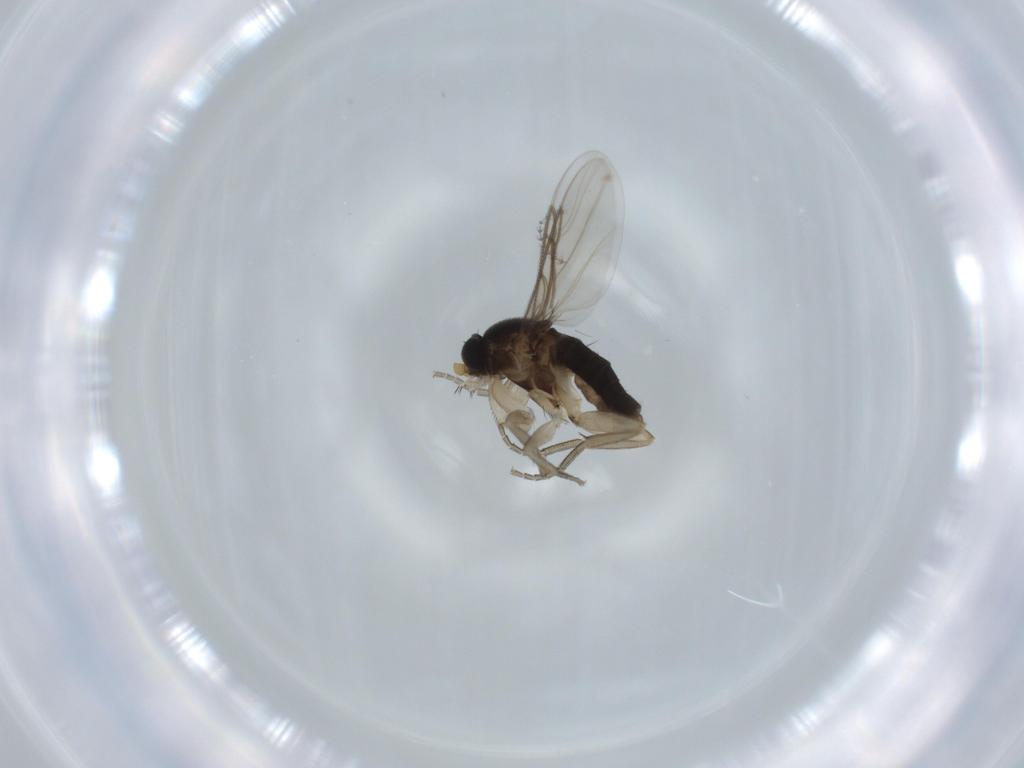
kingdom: Animalia
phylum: Arthropoda
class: Insecta
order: Diptera
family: Phoridae
